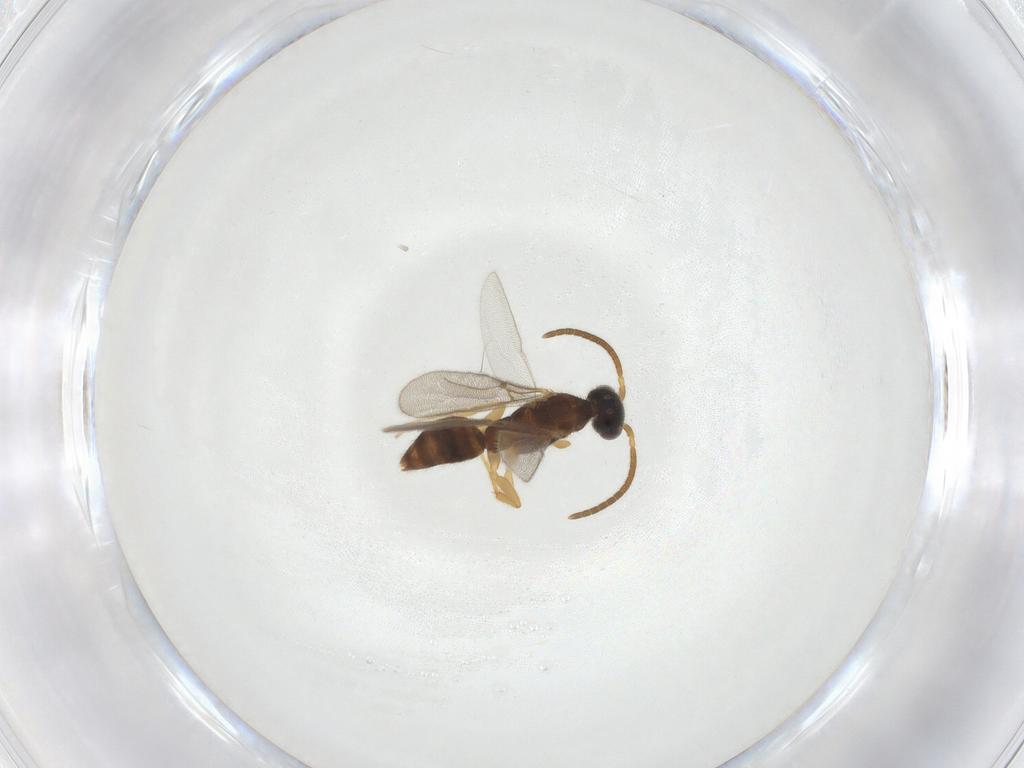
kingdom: Animalia
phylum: Arthropoda
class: Insecta
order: Hymenoptera
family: Bethylidae
